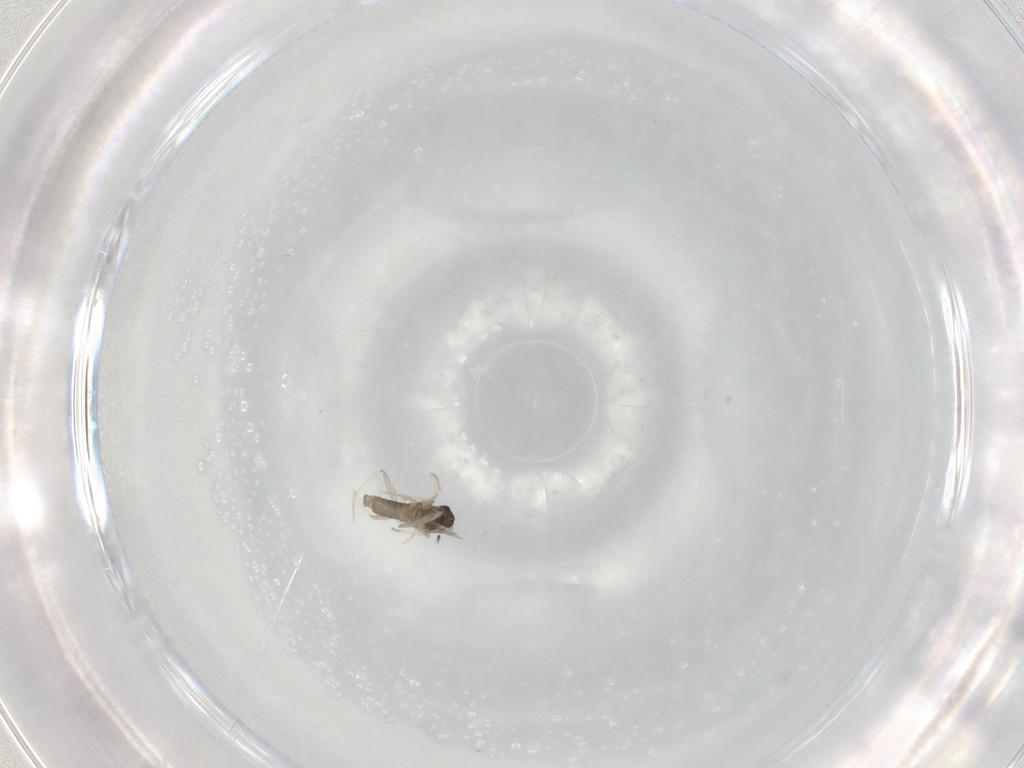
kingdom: Animalia
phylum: Arthropoda
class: Insecta
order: Diptera
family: Cecidomyiidae
